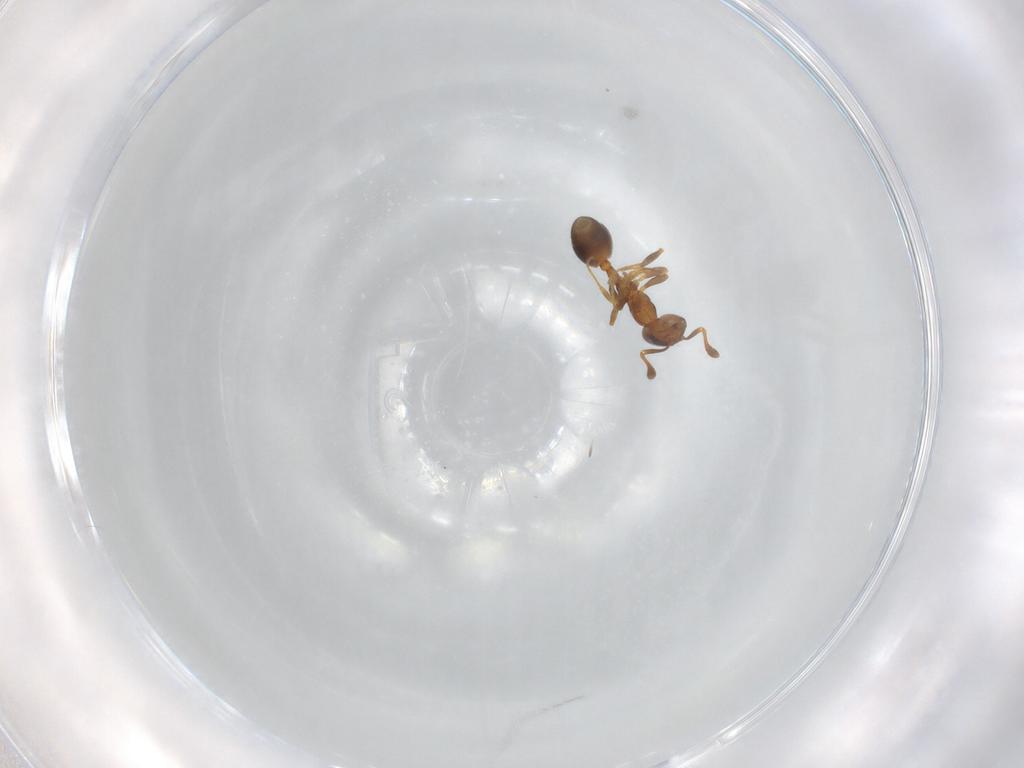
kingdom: Animalia
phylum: Arthropoda
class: Insecta
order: Hymenoptera
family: Formicidae
